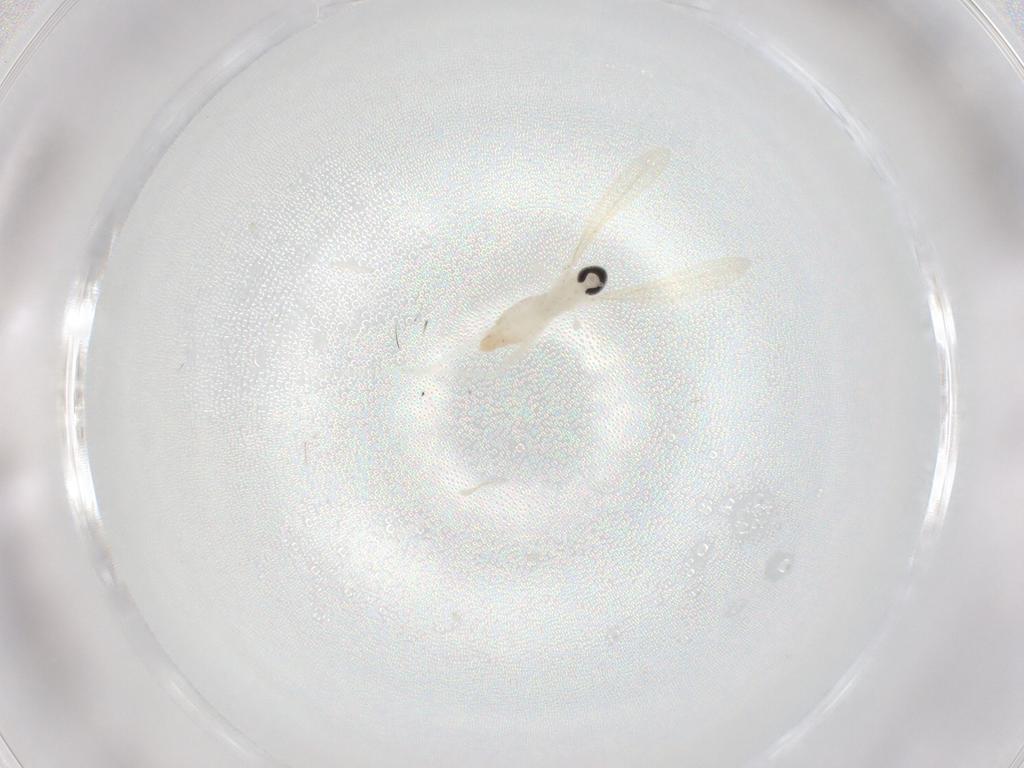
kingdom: Animalia
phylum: Arthropoda
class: Insecta
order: Diptera
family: Cecidomyiidae
